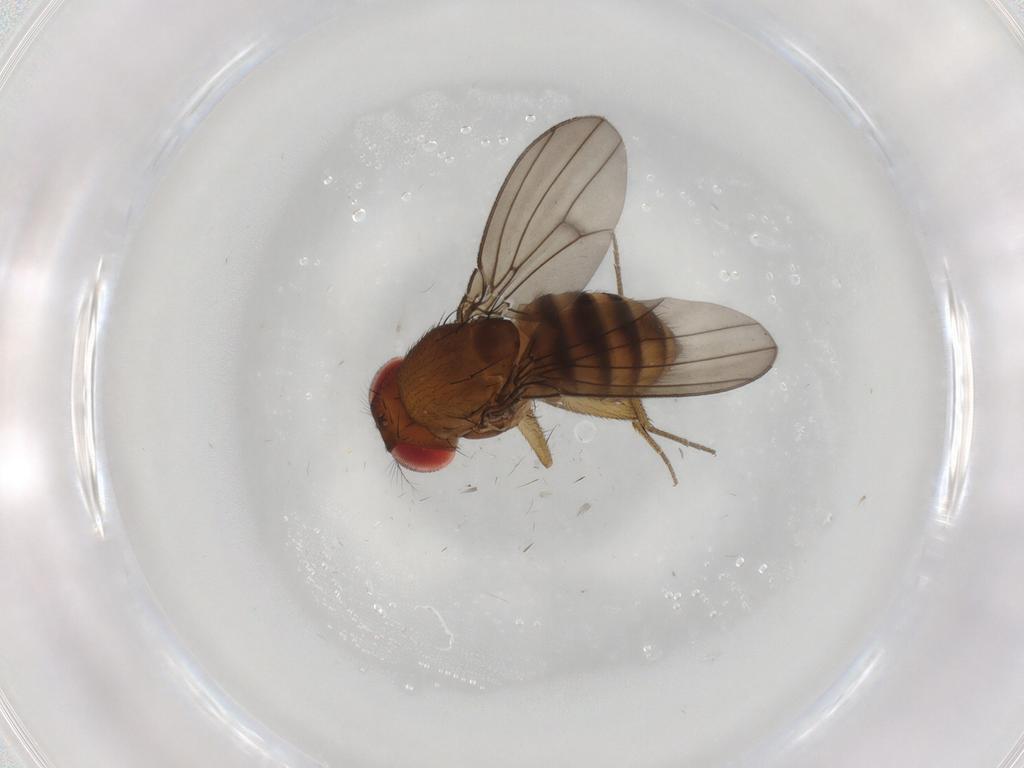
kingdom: Animalia
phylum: Arthropoda
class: Insecta
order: Diptera
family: Drosophilidae
